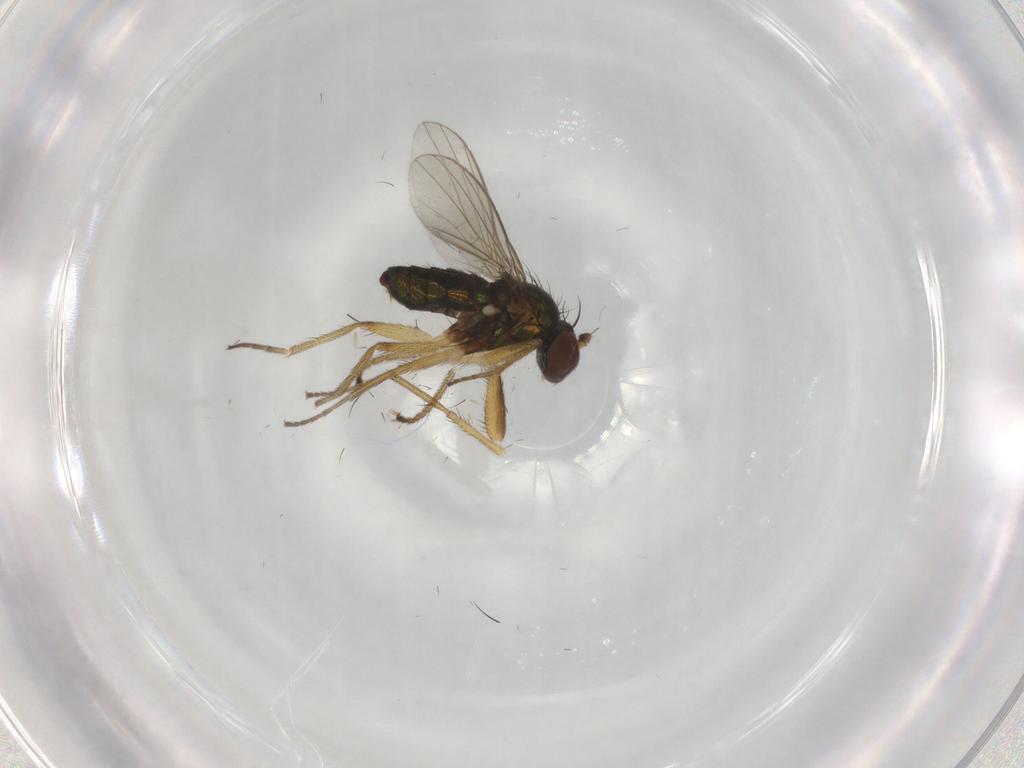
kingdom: Animalia
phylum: Arthropoda
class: Insecta
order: Diptera
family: Dolichopodidae
